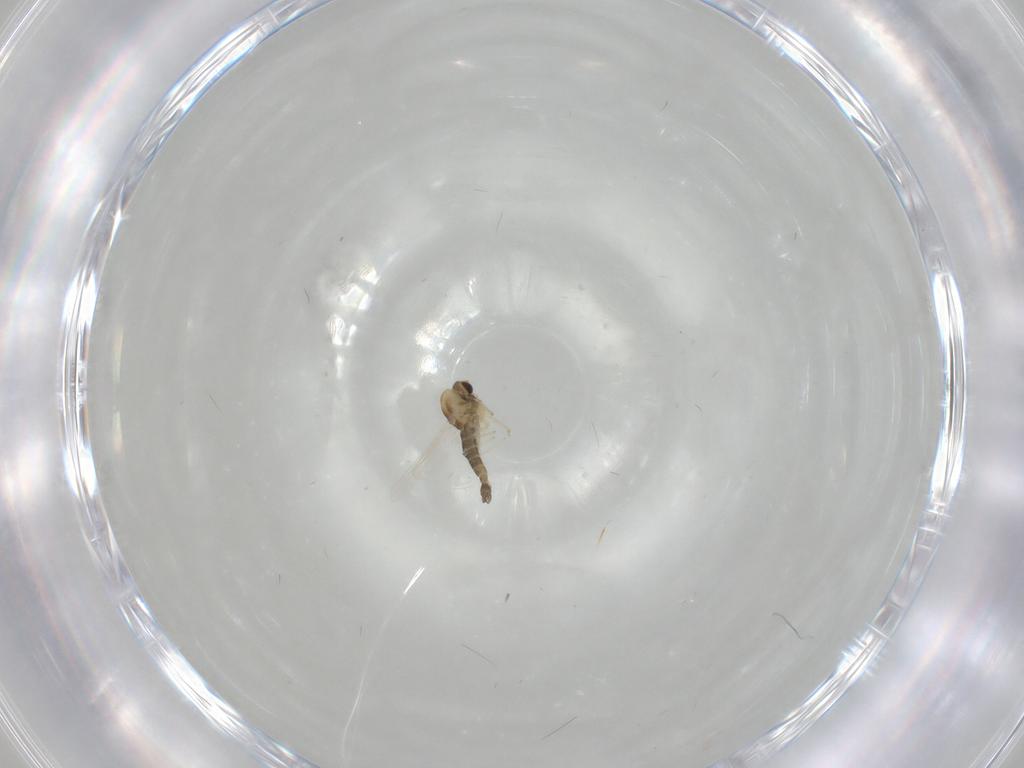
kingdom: Animalia
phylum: Arthropoda
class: Insecta
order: Diptera
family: Chironomidae
